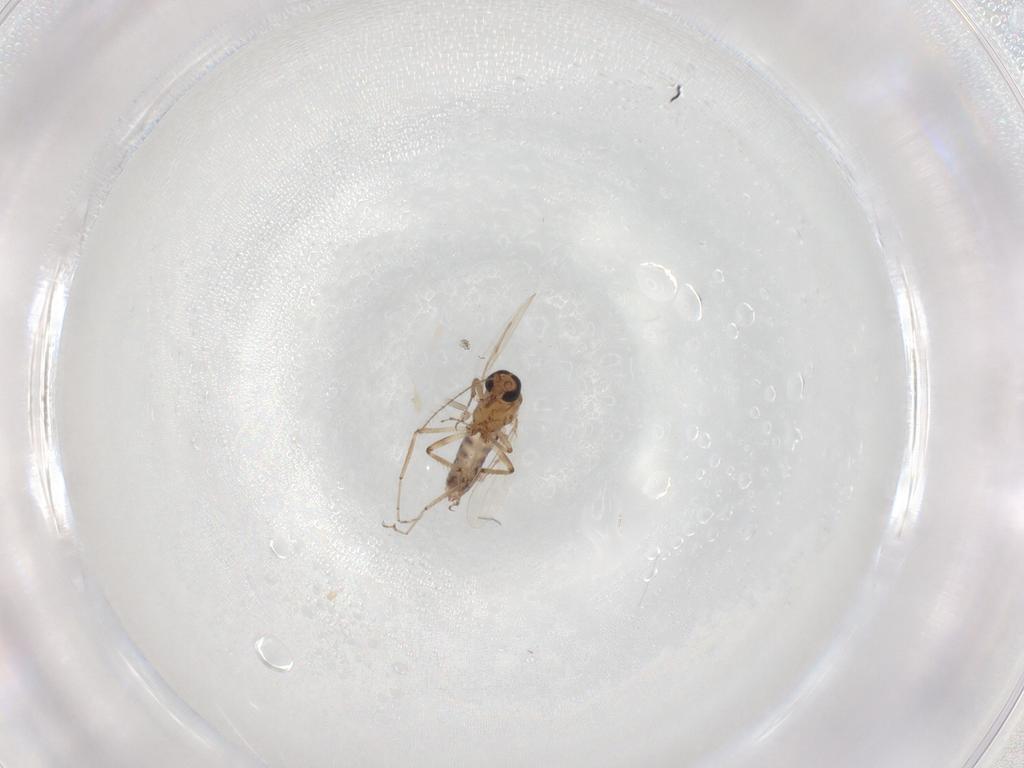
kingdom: Animalia
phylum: Arthropoda
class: Insecta
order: Diptera
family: Ceratopogonidae
